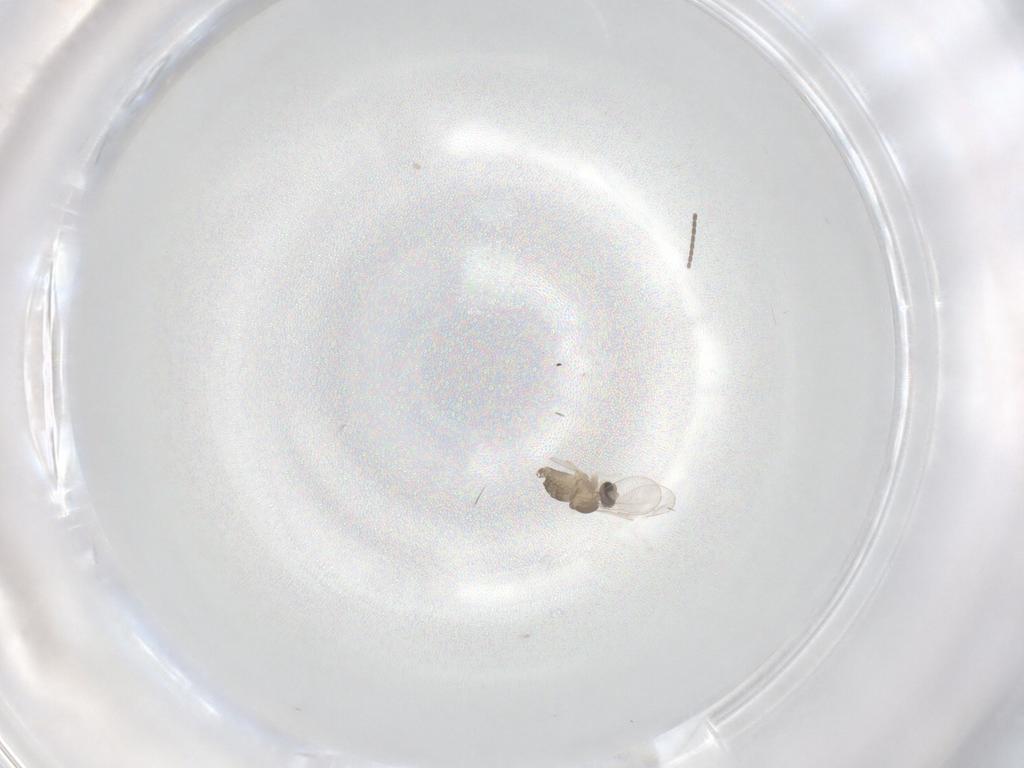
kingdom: Animalia
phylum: Arthropoda
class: Insecta
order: Diptera
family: Cecidomyiidae
